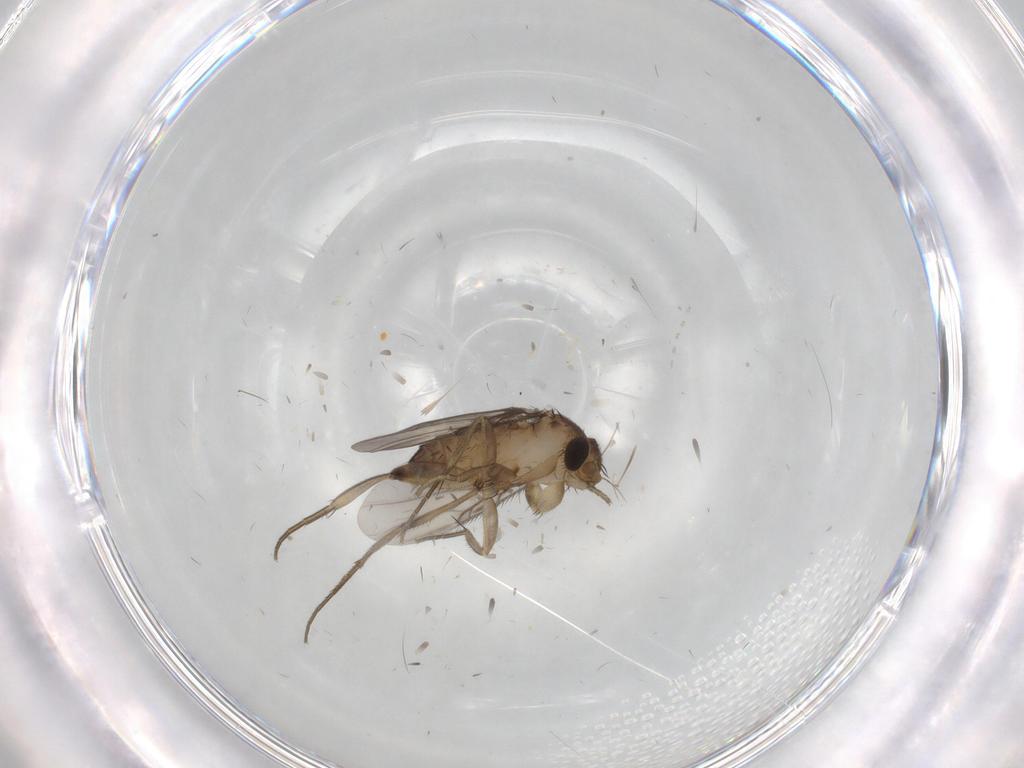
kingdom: Animalia
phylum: Arthropoda
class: Insecta
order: Diptera
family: Phoridae
